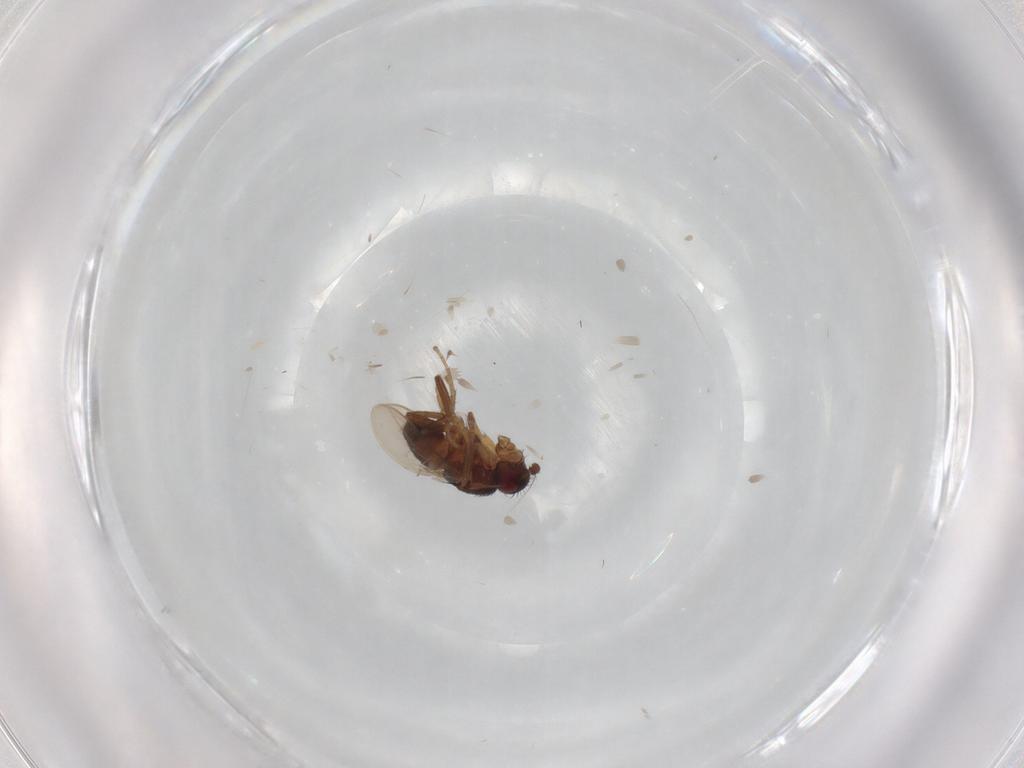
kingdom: Animalia
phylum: Arthropoda
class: Insecta
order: Diptera
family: Sphaeroceridae
